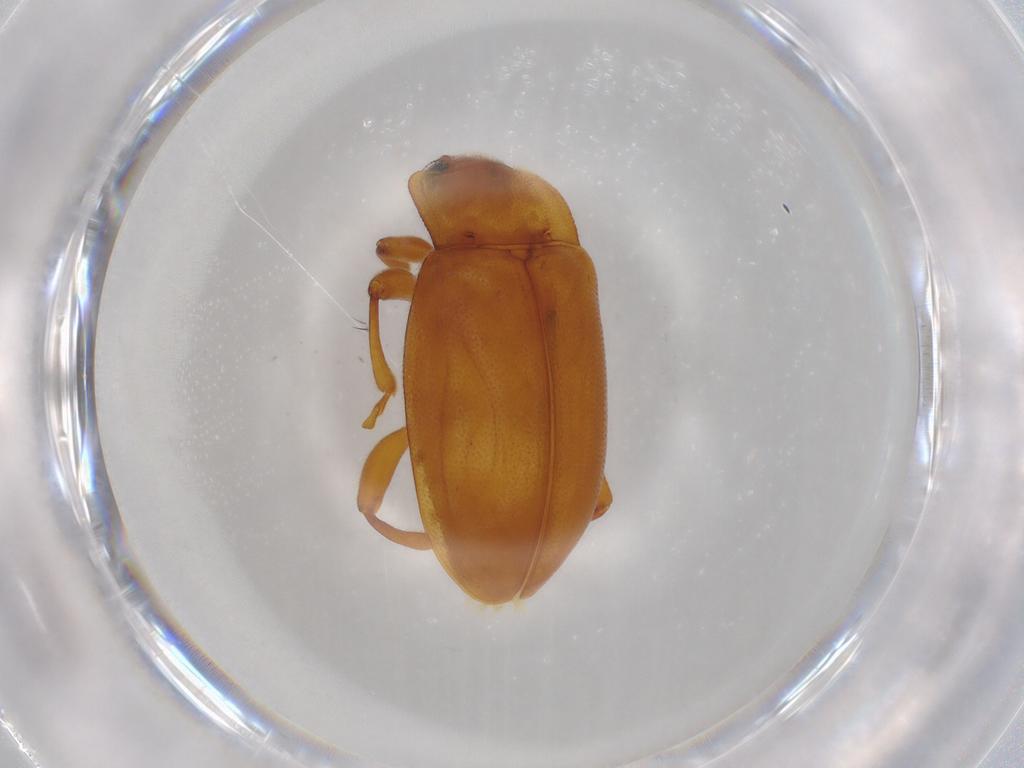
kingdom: Animalia
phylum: Arthropoda
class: Insecta
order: Coleoptera
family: Endomychidae
